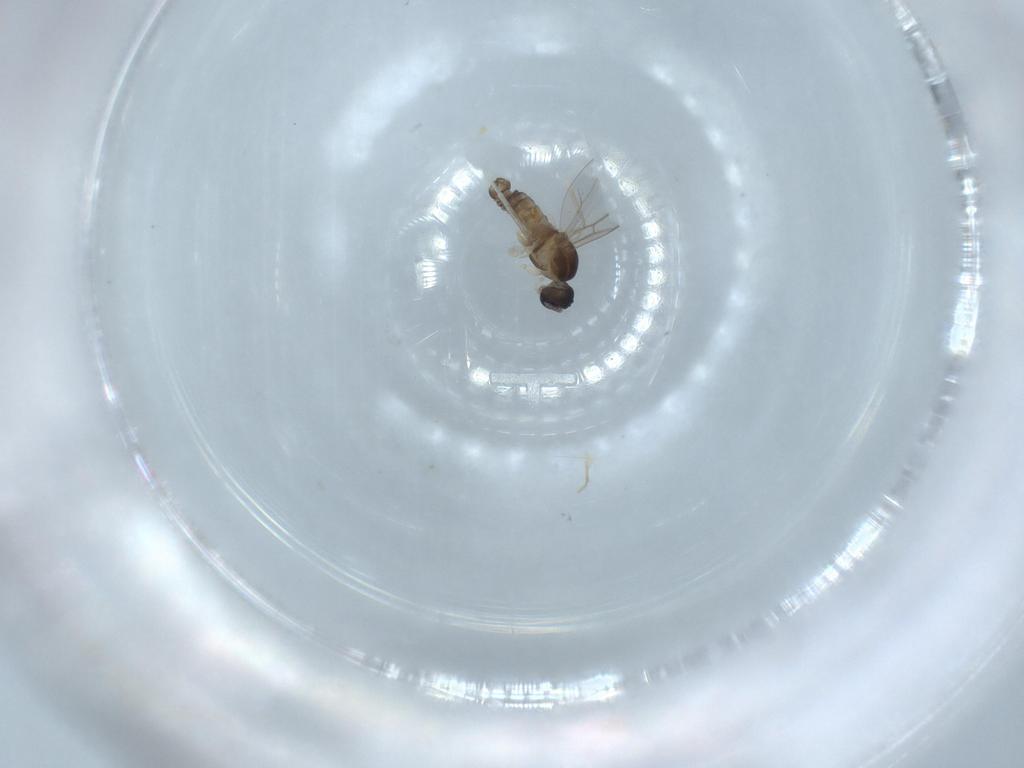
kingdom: Animalia
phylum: Arthropoda
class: Insecta
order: Diptera
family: Cecidomyiidae
